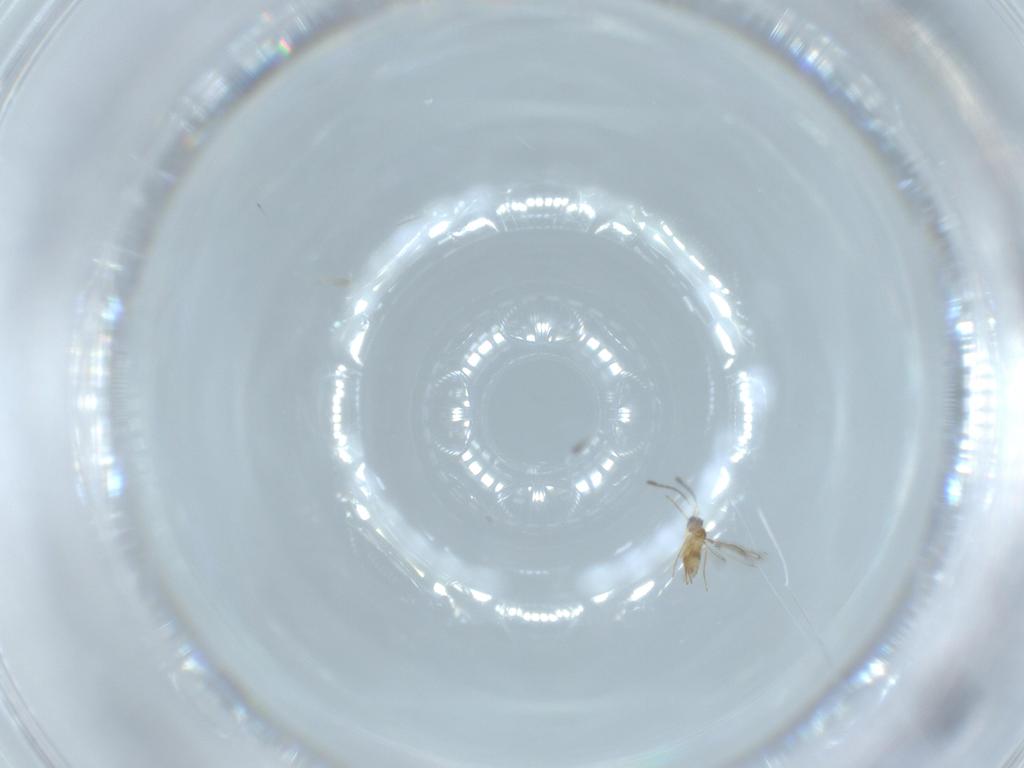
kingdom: Animalia
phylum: Arthropoda
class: Insecta
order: Hymenoptera
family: Mymaridae
